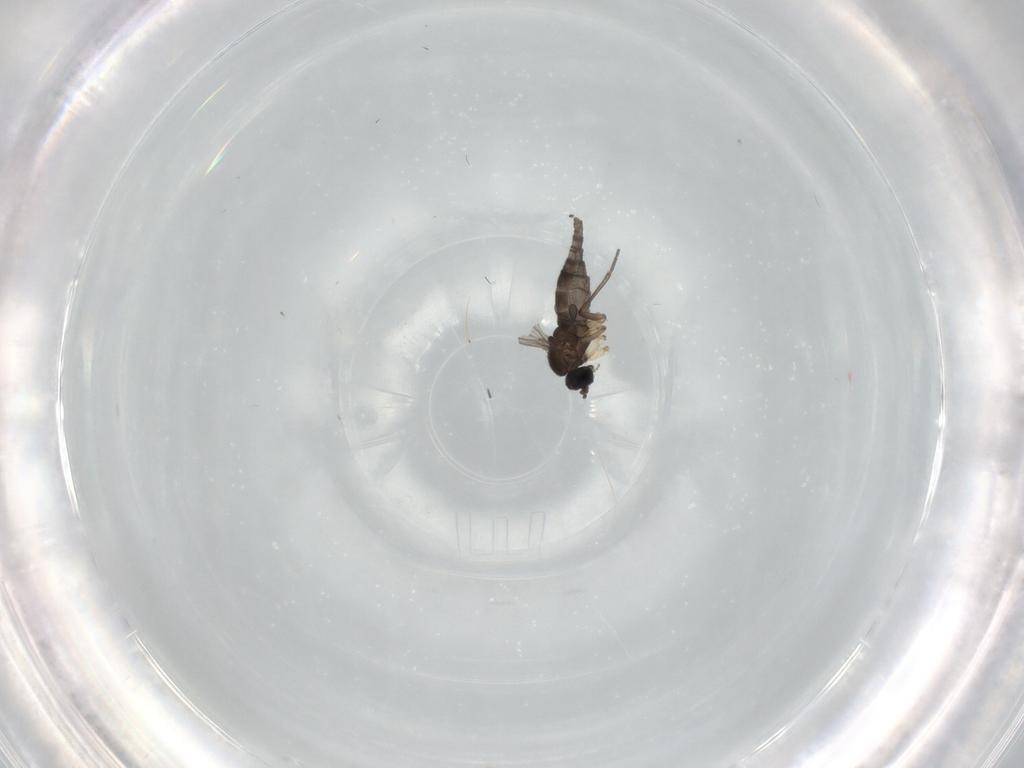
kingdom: Animalia
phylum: Arthropoda
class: Insecta
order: Diptera
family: Sciaridae
